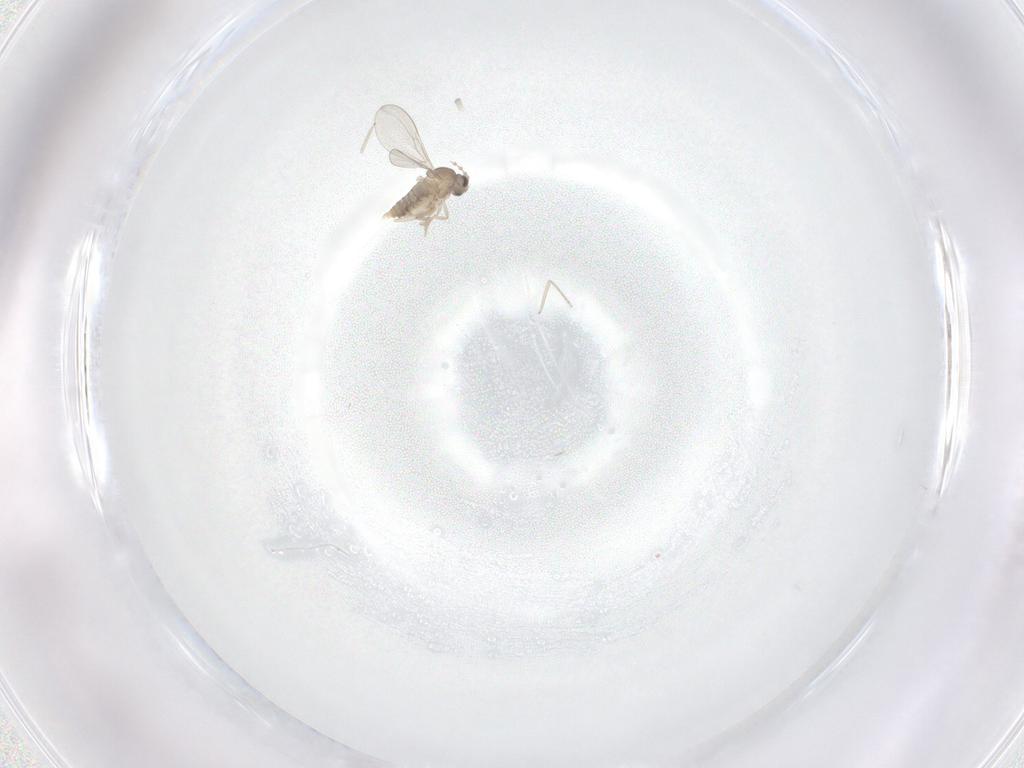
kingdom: Animalia
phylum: Arthropoda
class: Insecta
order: Diptera
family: Cecidomyiidae
